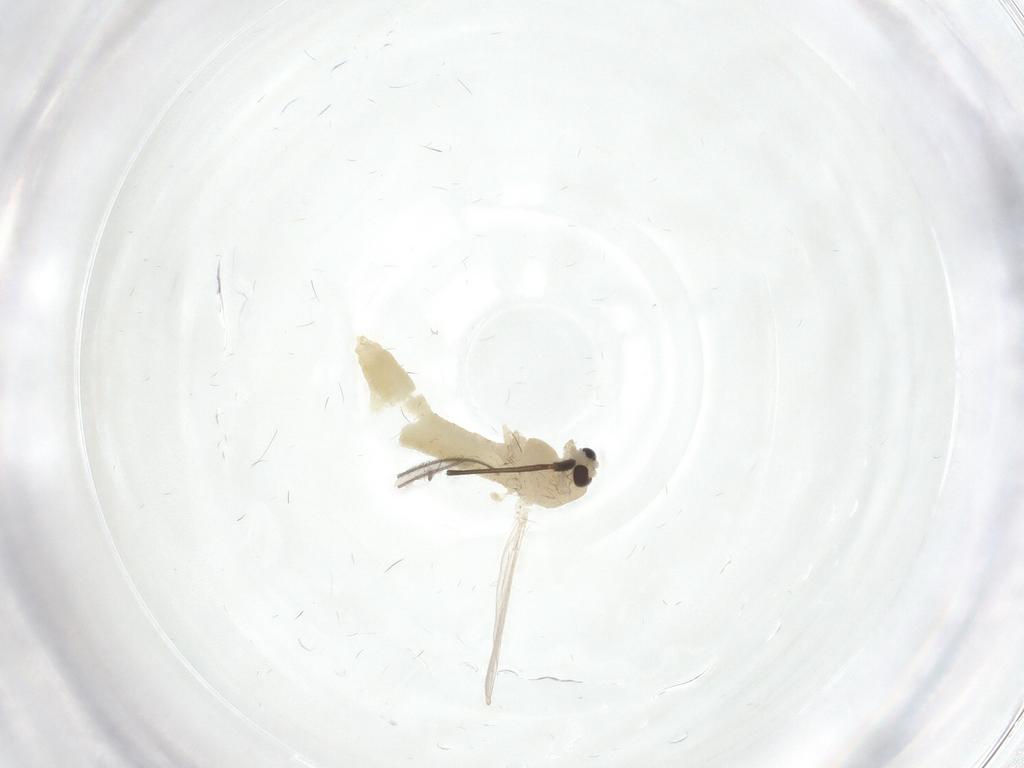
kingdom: Animalia
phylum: Arthropoda
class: Insecta
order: Diptera
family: Chironomidae
